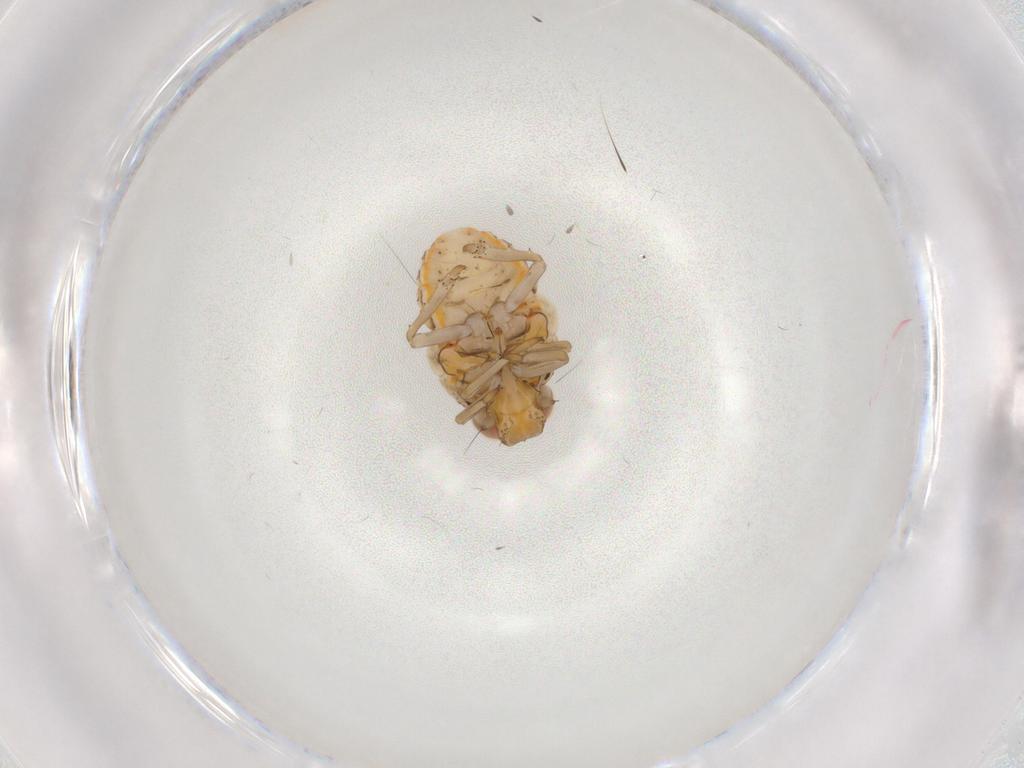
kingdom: Animalia
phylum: Arthropoda
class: Insecta
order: Hemiptera
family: Issidae
